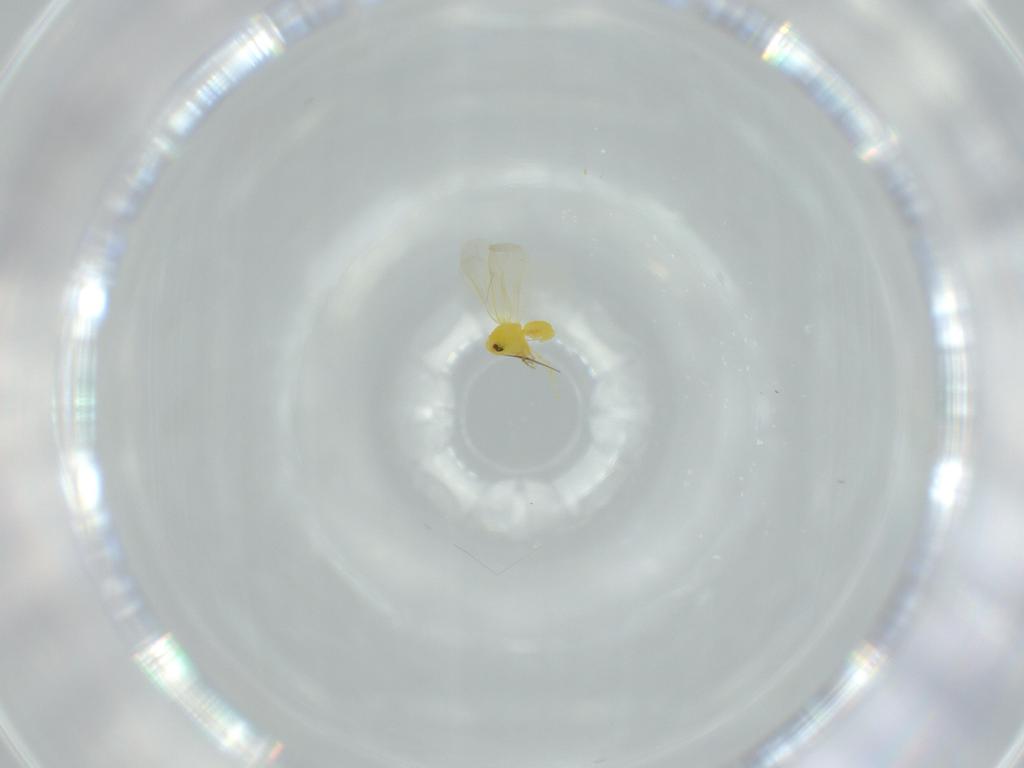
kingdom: Animalia
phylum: Arthropoda
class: Insecta
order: Hemiptera
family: Aleyrodidae
